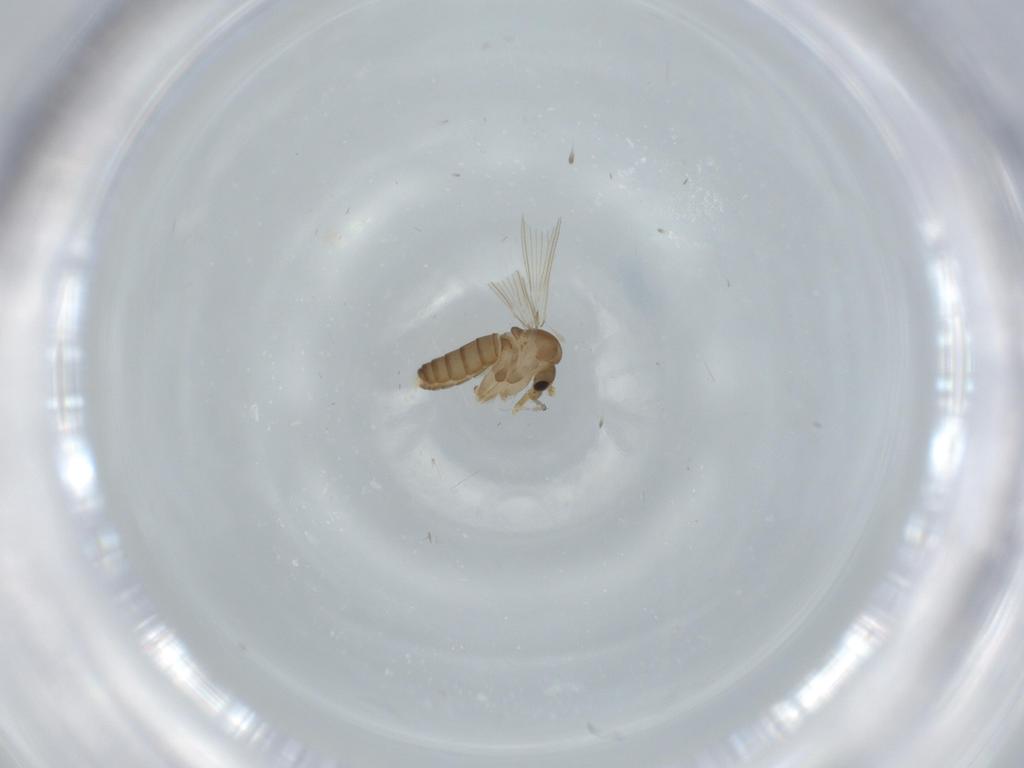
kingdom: Animalia
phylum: Arthropoda
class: Insecta
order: Diptera
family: Psychodidae
